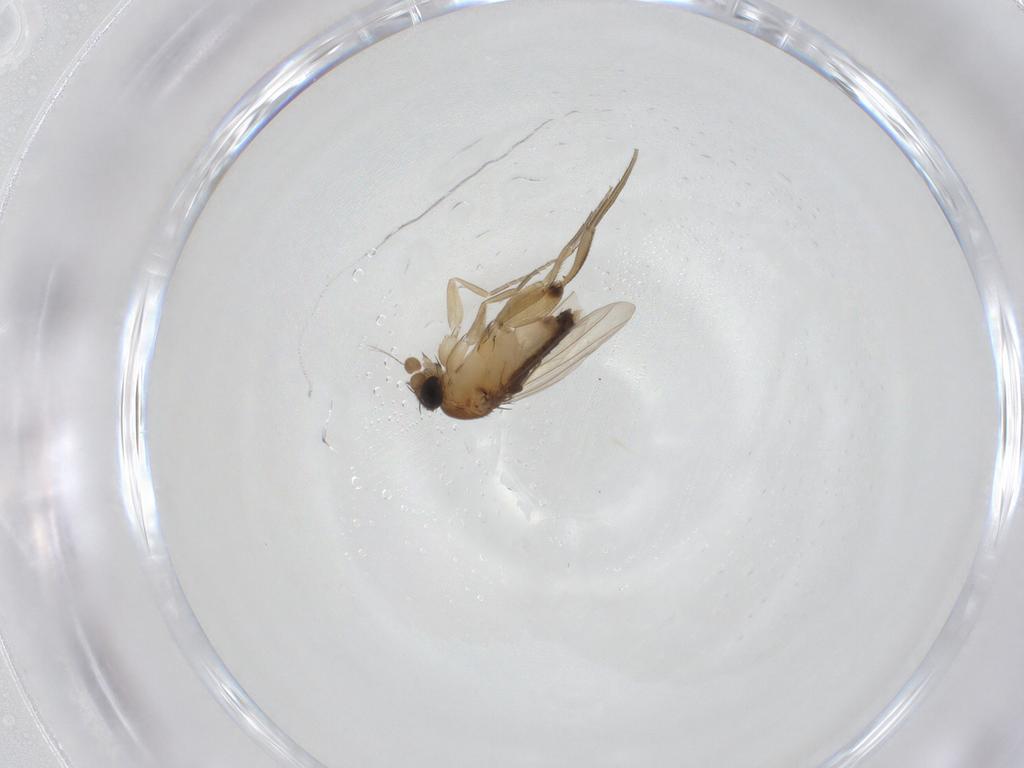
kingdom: Animalia
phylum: Arthropoda
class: Insecta
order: Diptera
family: Phoridae
